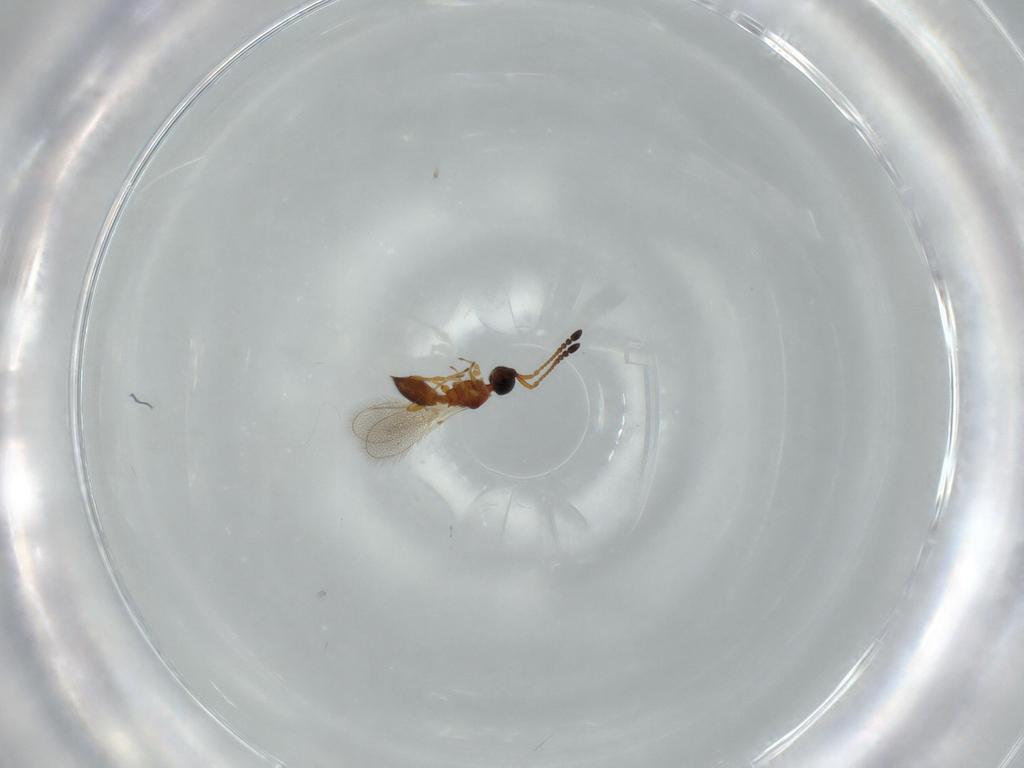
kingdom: Animalia
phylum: Arthropoda
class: Insecta
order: Hymenoptera
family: Diapriidae
